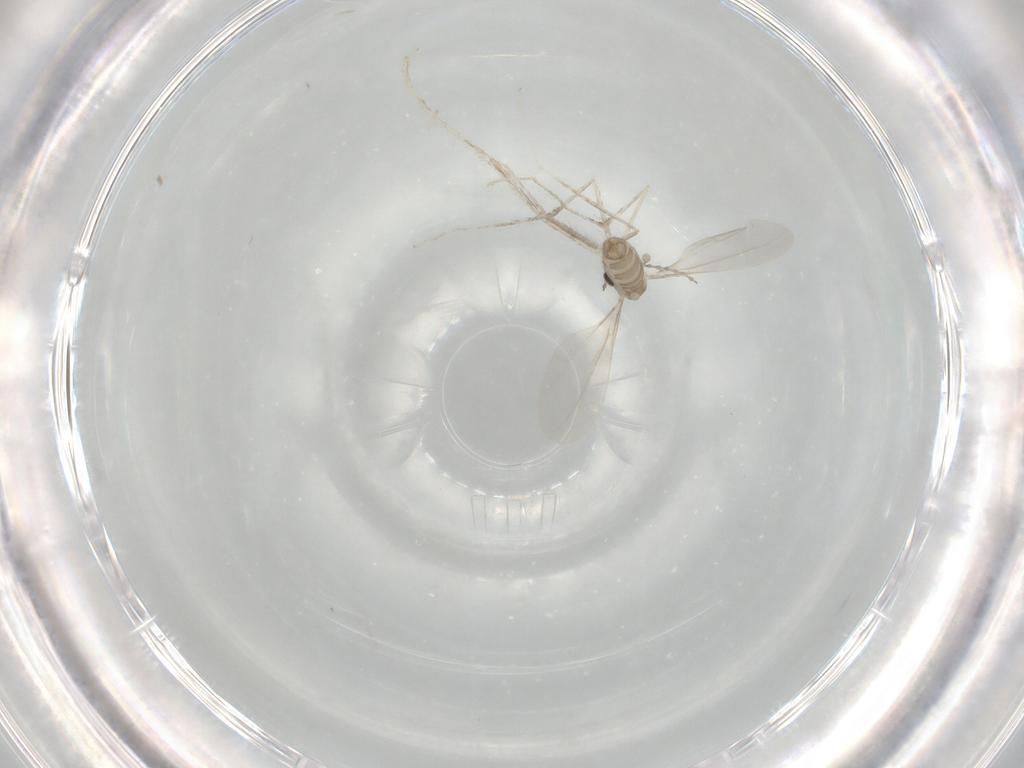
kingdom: Animalia
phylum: Arthropoda
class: Insecta
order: Diptera
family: Cecidomyiidae
